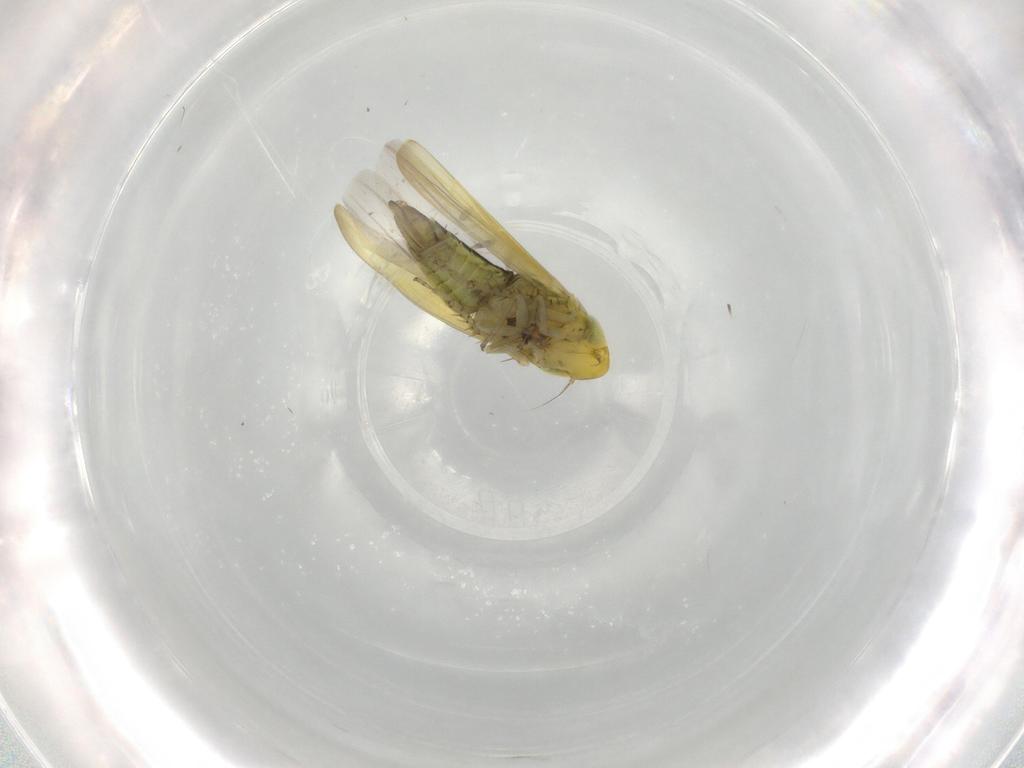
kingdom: Animalia
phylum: Arthropoda
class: Insecta
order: Hemiptera
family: Cicadellidae
